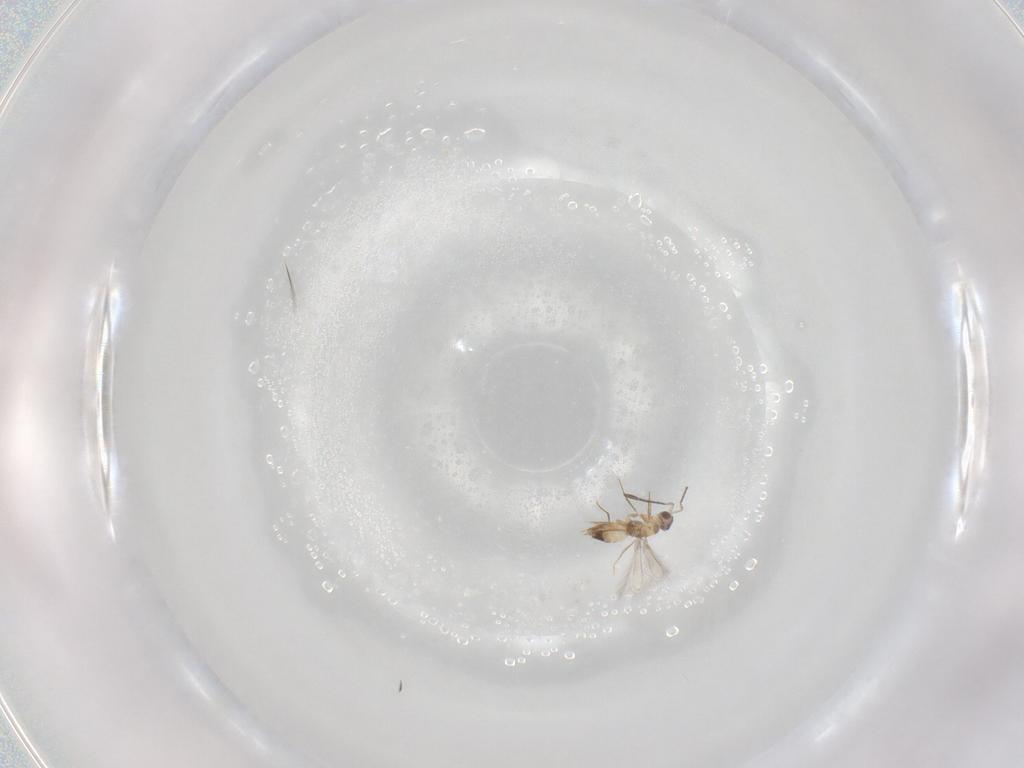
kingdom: Animalia
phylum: Arthropoda
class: Insecta
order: Hymenoptera
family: Mymaridae
